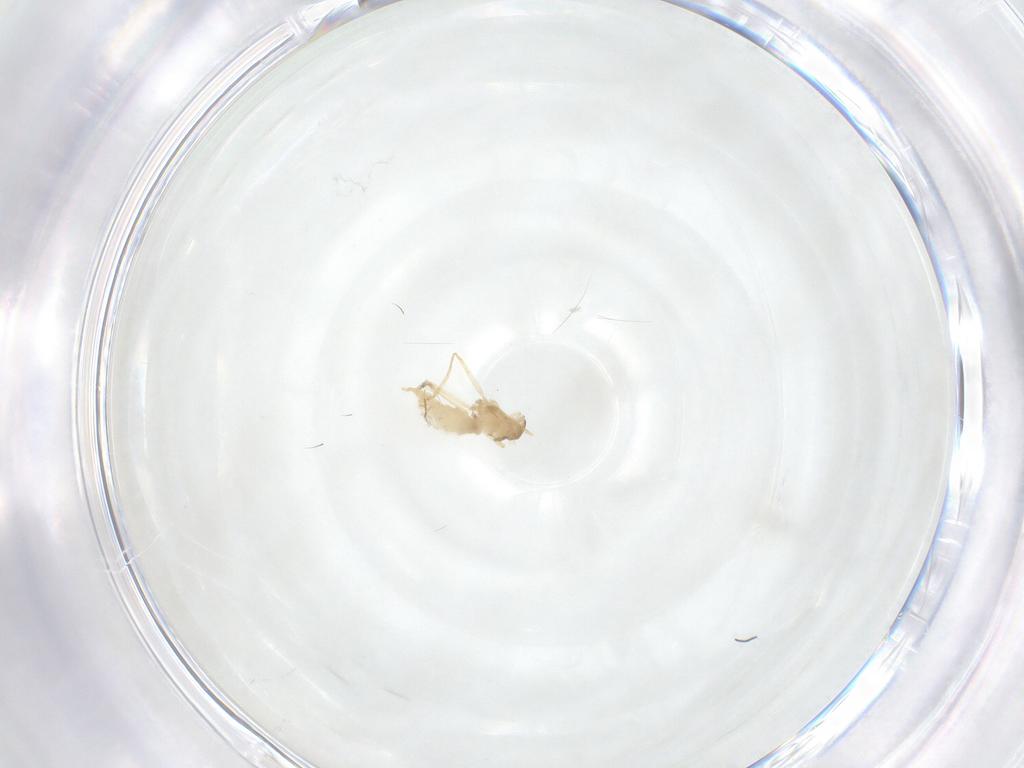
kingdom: Animalia
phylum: Arthropoda
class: Insecta
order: Diptera
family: Cecidomyiidae
